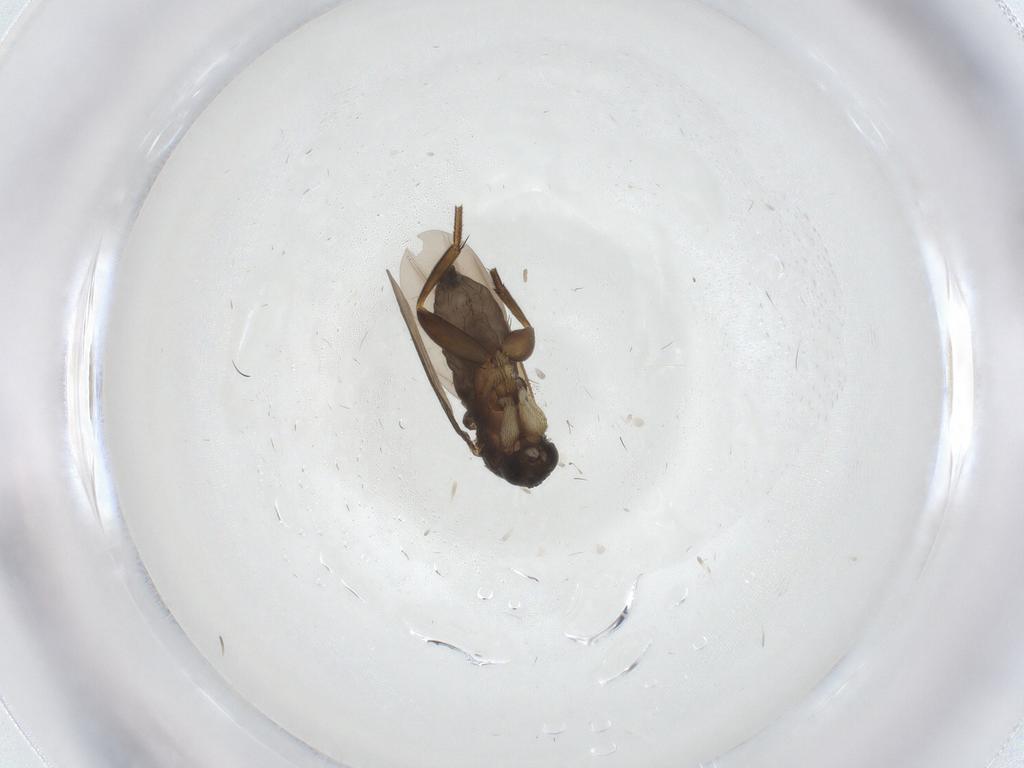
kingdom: Animalia
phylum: Arthropoda
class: Insecta
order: Diptera
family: Phoridae
